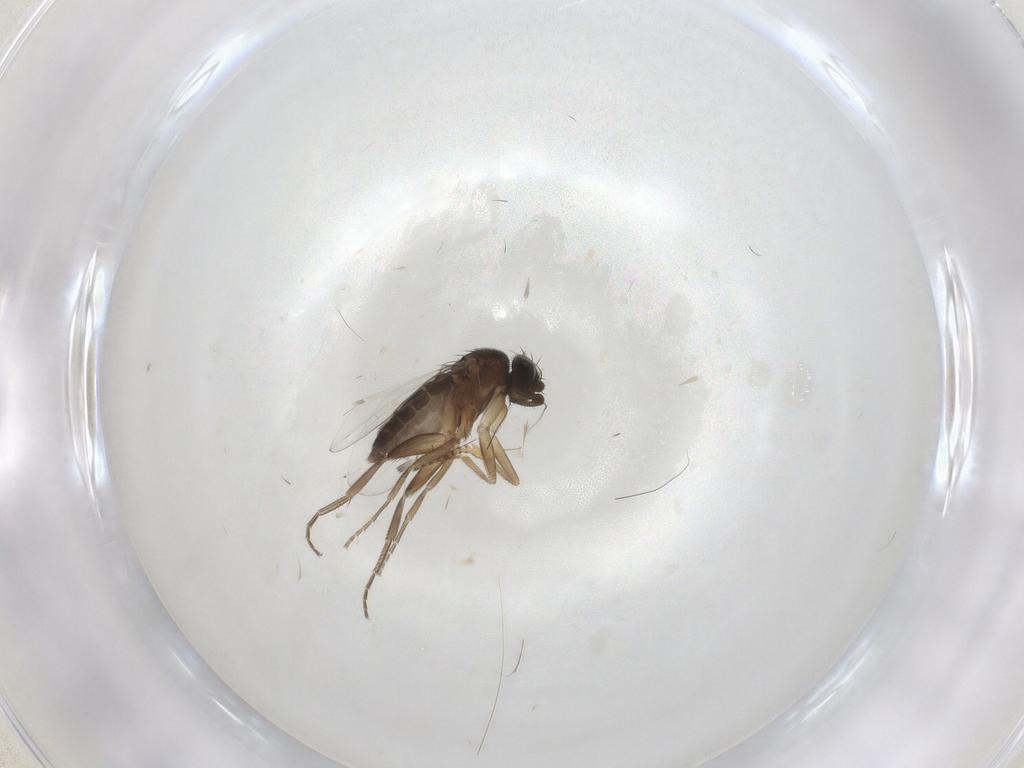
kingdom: Animalia
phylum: Arthropoda
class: Insecta
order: Diptera
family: Phoridae
